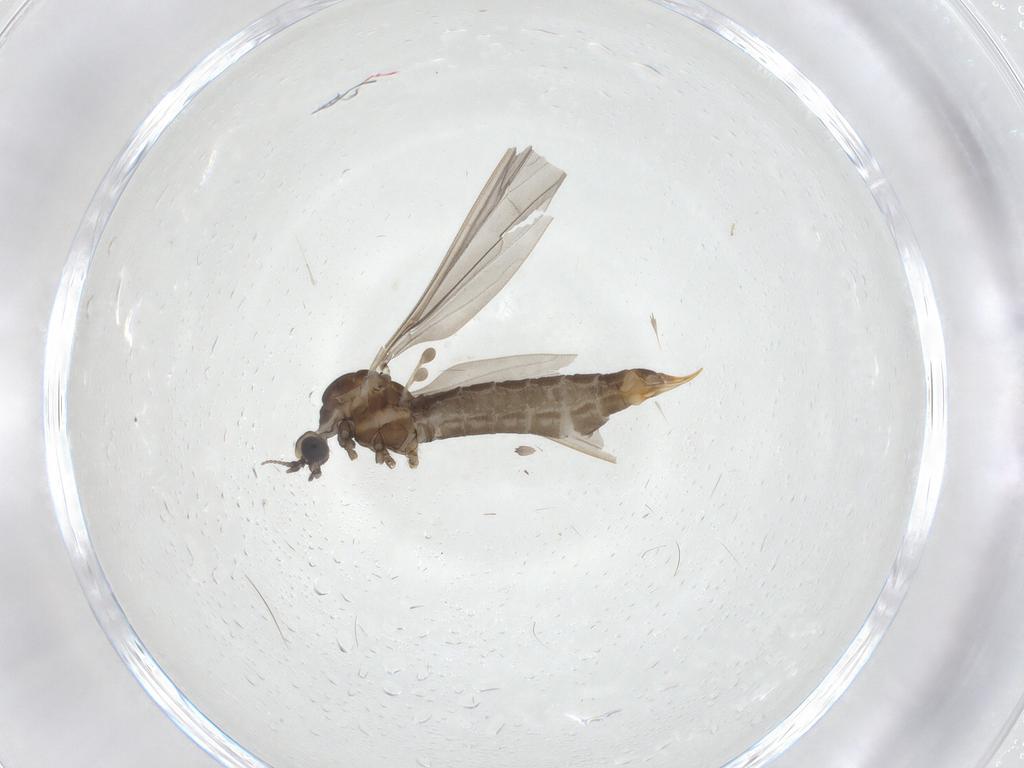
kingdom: Animalia
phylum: Arthropoda
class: Insecta
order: Diptera
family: Limoniidae
